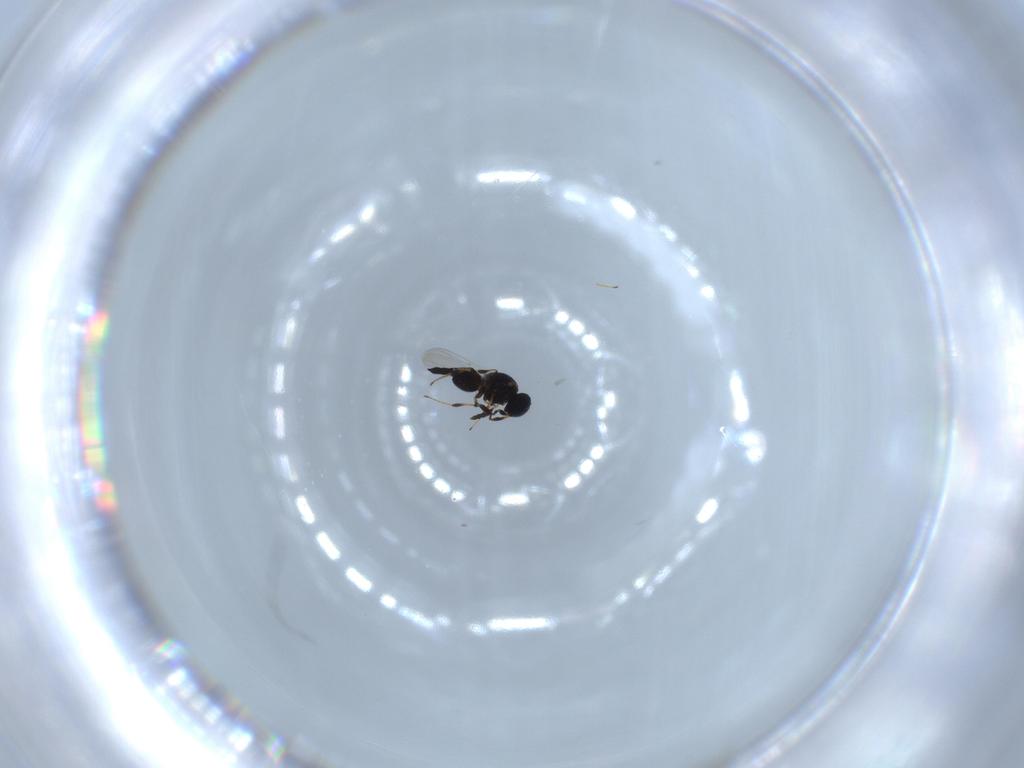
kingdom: Animalia
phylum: Arthropoda
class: Insecta
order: Hymenoptera
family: Platygastridae
